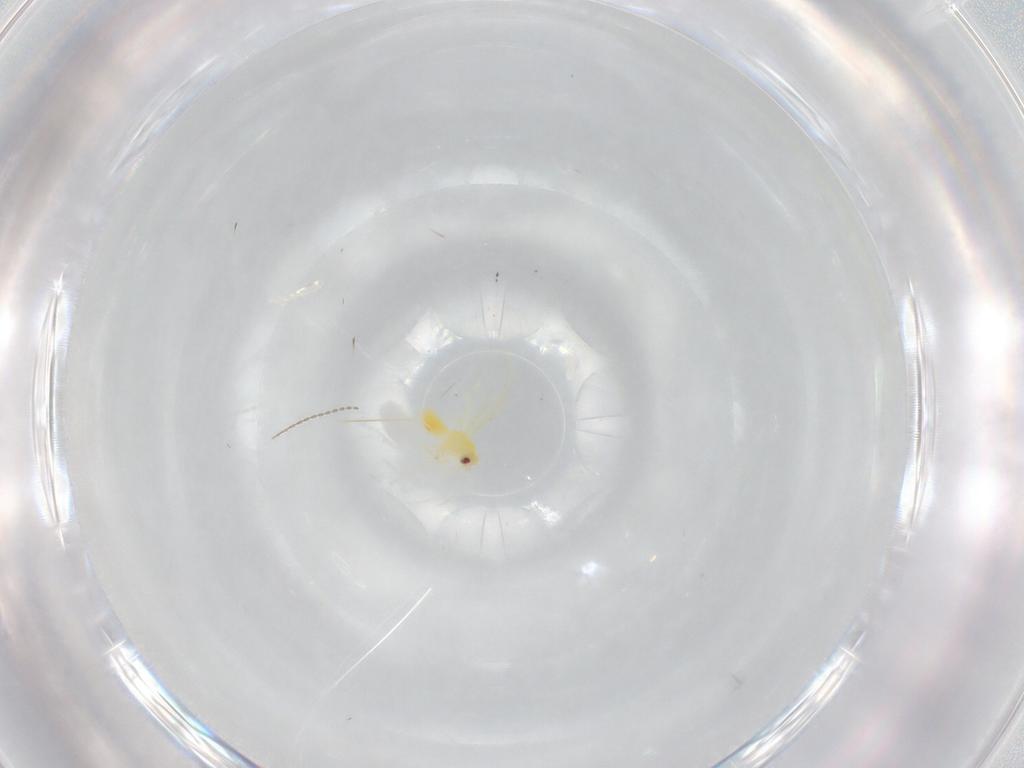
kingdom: Animalia
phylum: Arthropoda
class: Insecta
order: Hemiptera
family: Aleyrodidae
